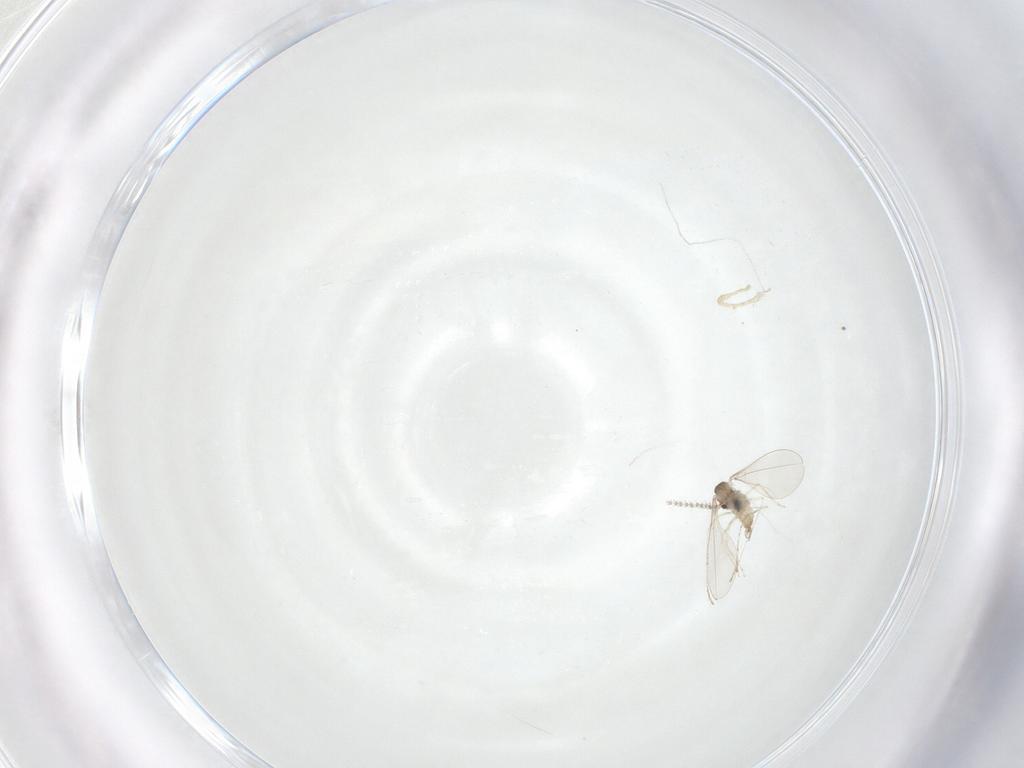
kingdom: Animalia
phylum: Arthropoda
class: Insecta
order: Diptera
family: Chironomidae
